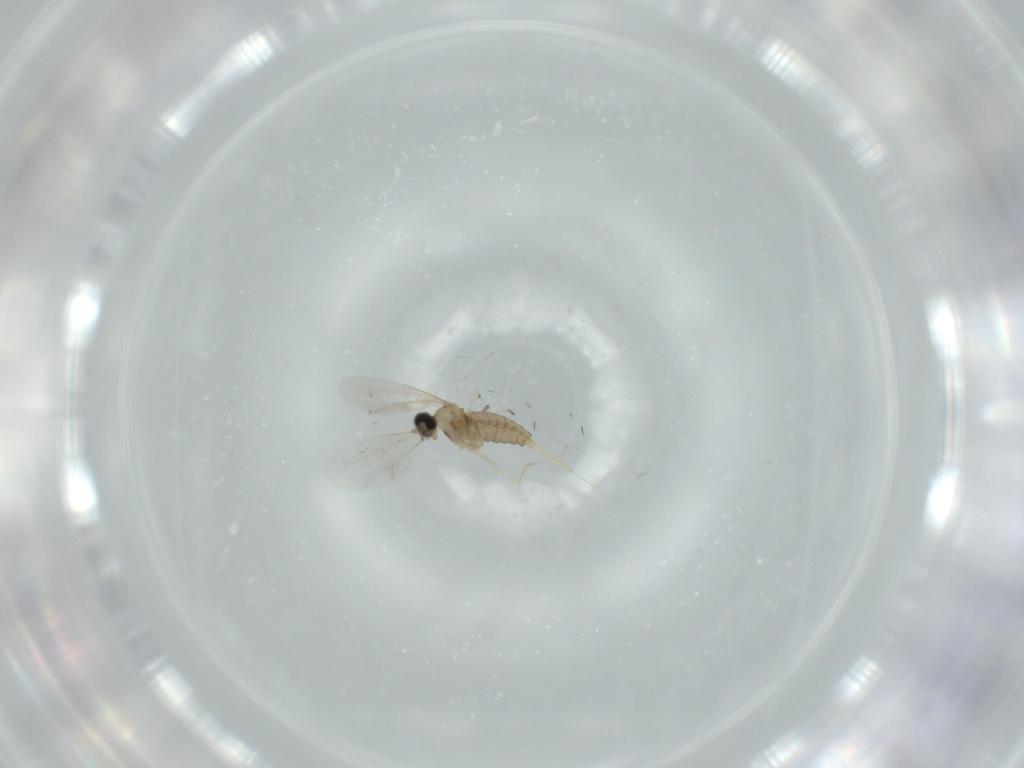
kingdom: Animalia
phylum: Arthropoda
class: Insecta
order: Diptera
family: Cecidomyiidae
